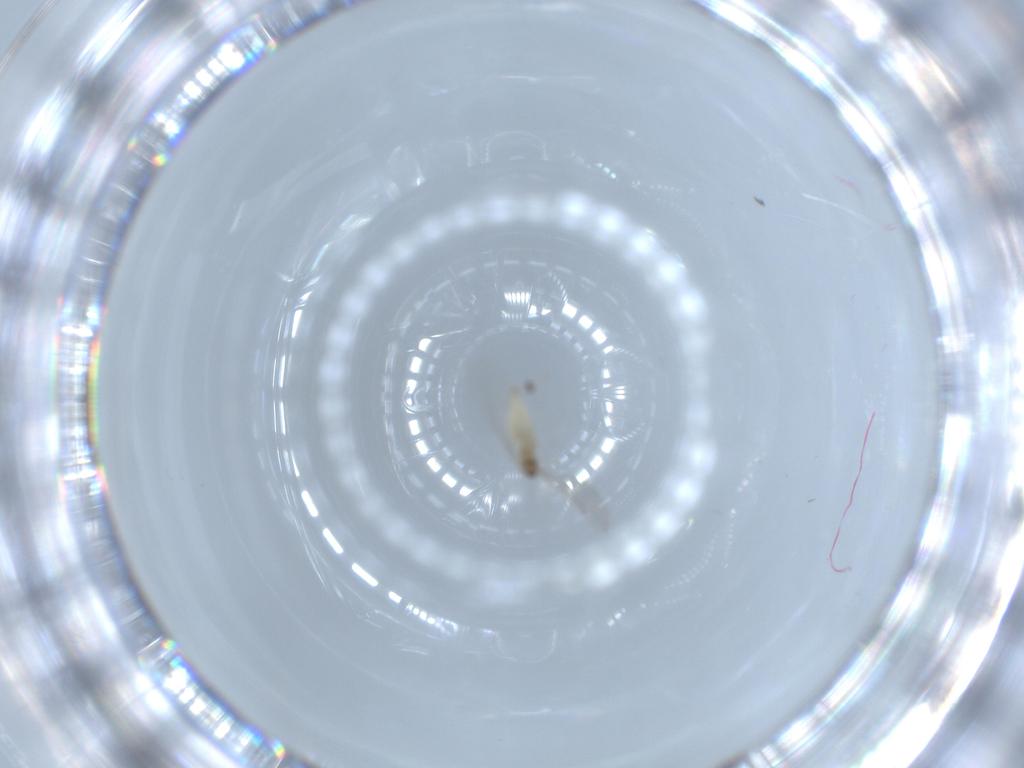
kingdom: Animalia
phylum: Arthropoda
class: Insecta
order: Diptera
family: Cecidomyiidae
